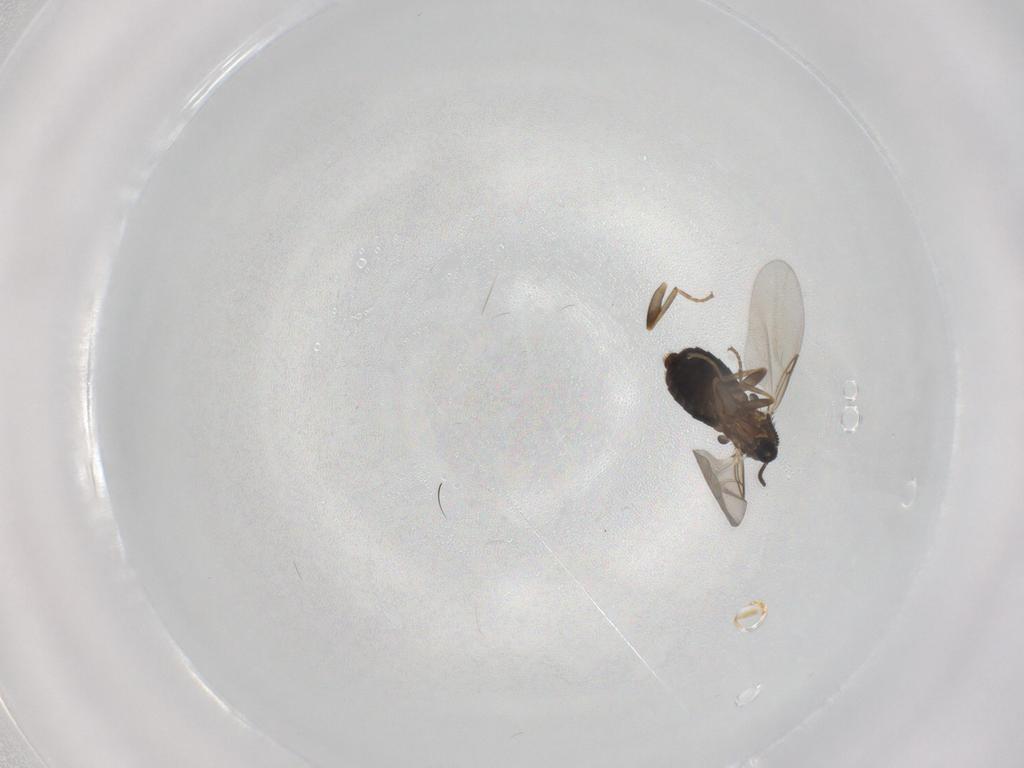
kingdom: Animalia
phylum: Arthropoda
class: Insecta
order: Diptera
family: Scatopsidae
